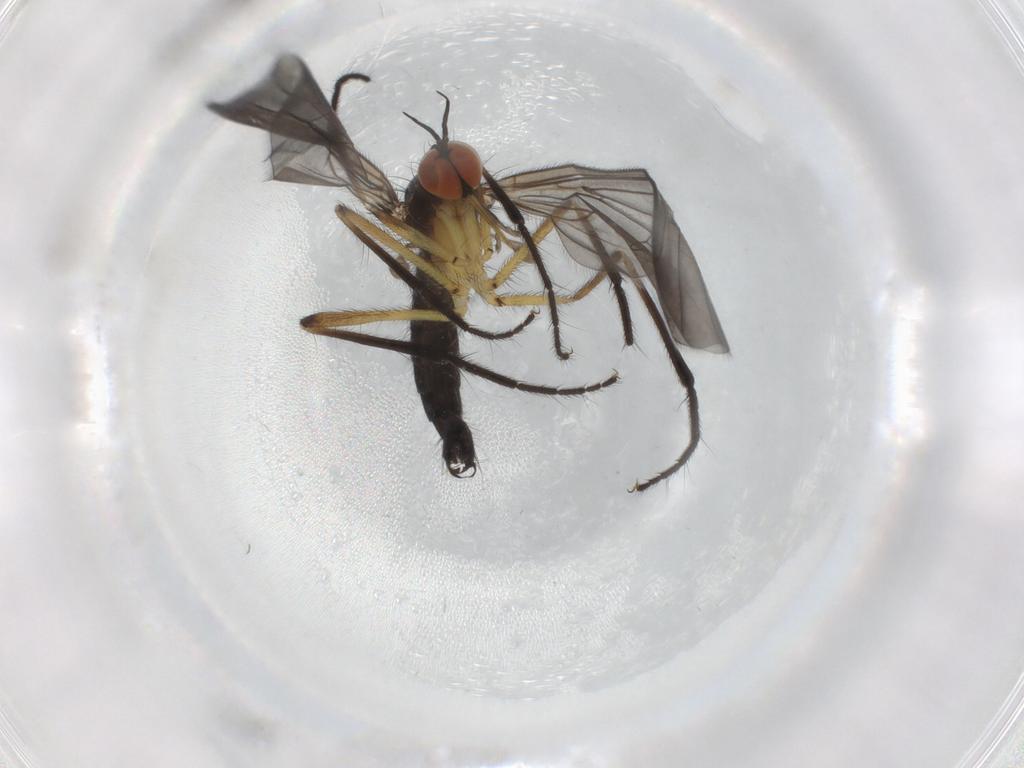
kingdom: Animalia
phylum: Arthropoda
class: Insecta
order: Diptera
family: Empididae
